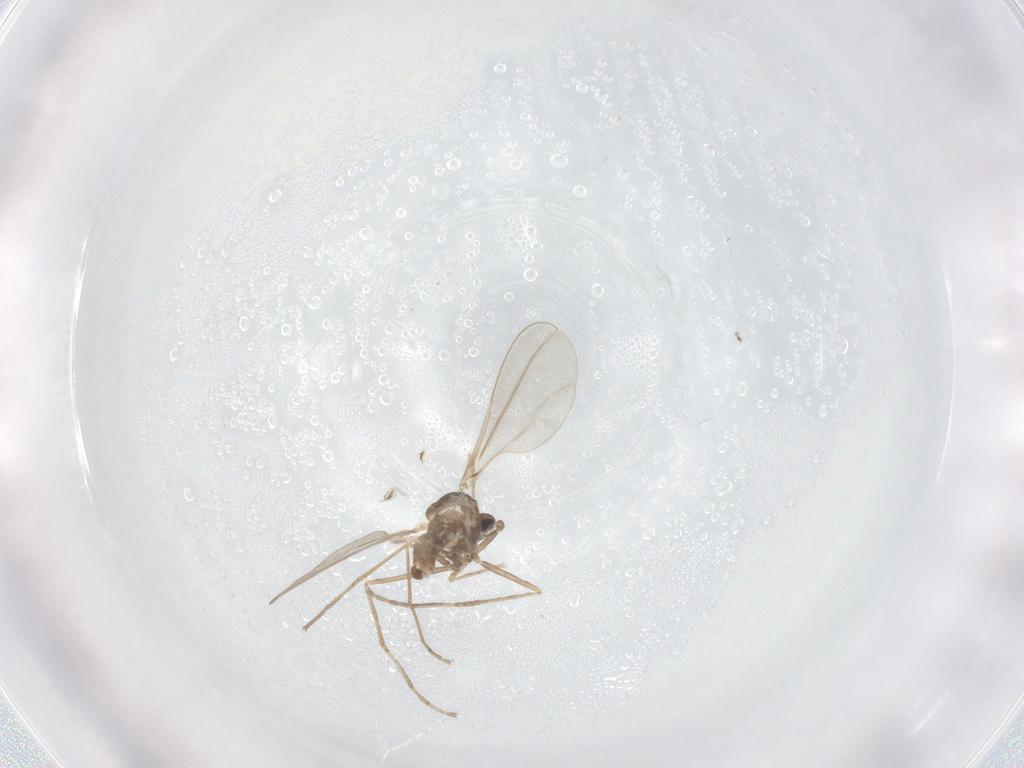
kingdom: Animalia
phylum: Arthropoda
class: Insecta
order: Diptera
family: Cecidomyiidae
